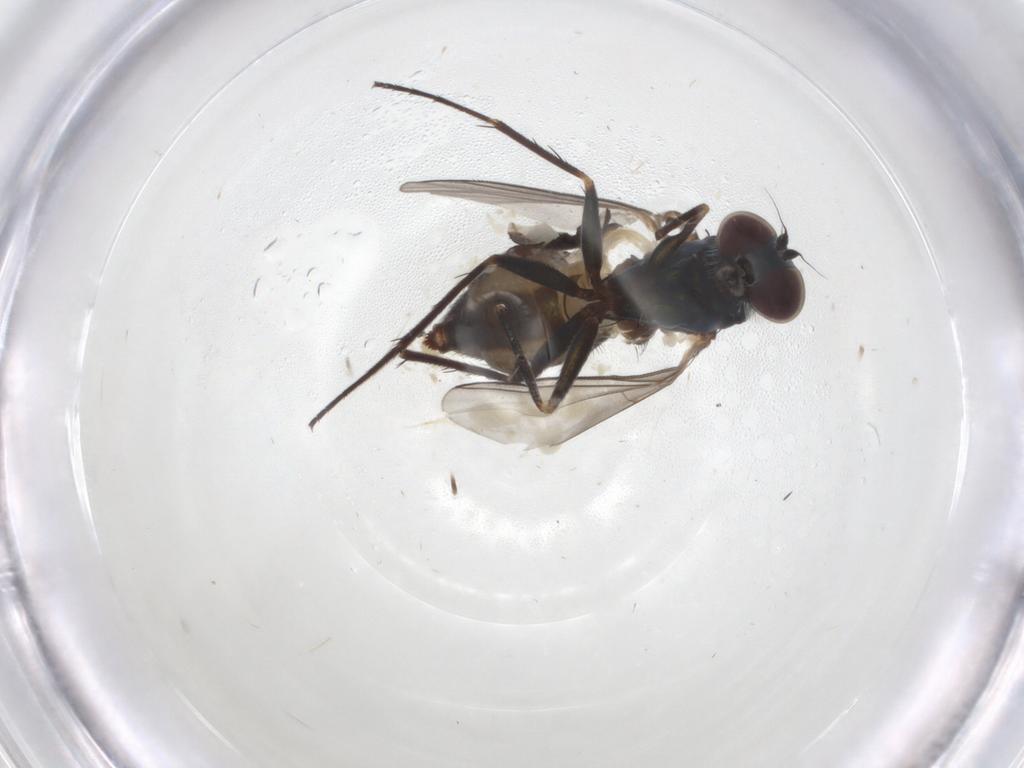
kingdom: Animalia
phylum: Arthropoda
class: Insecta
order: Diptera
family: Dolichopodidae
